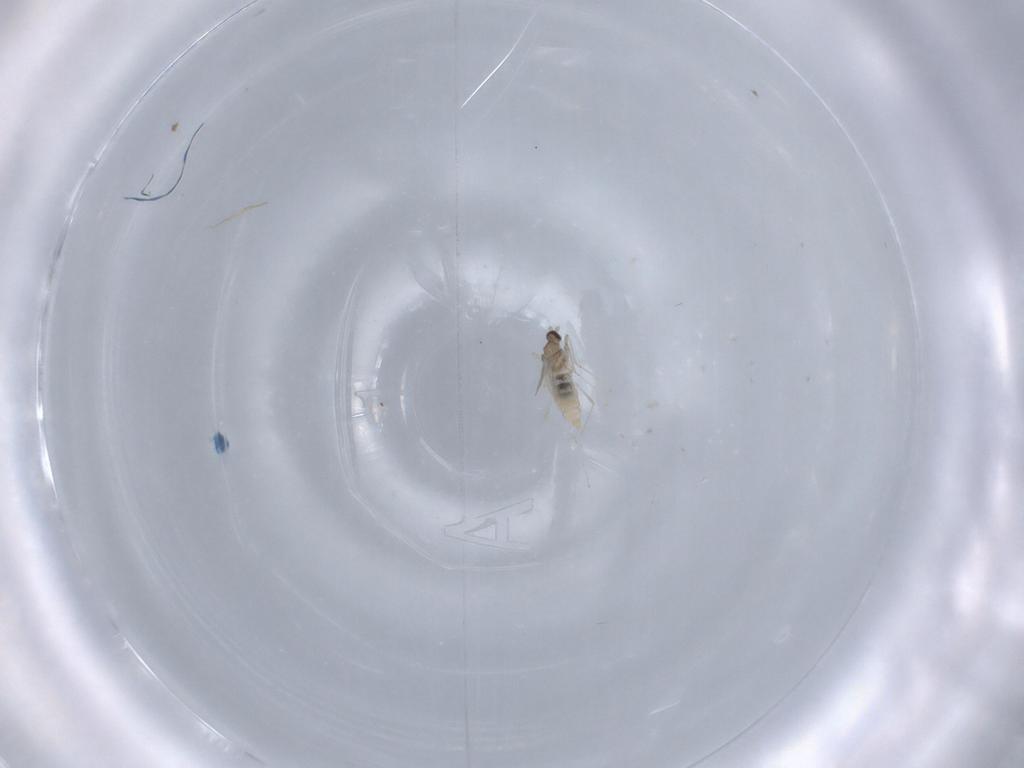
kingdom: Animalia
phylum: Arthropoda
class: Insecta
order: Diptera
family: Cecidomyiidae
